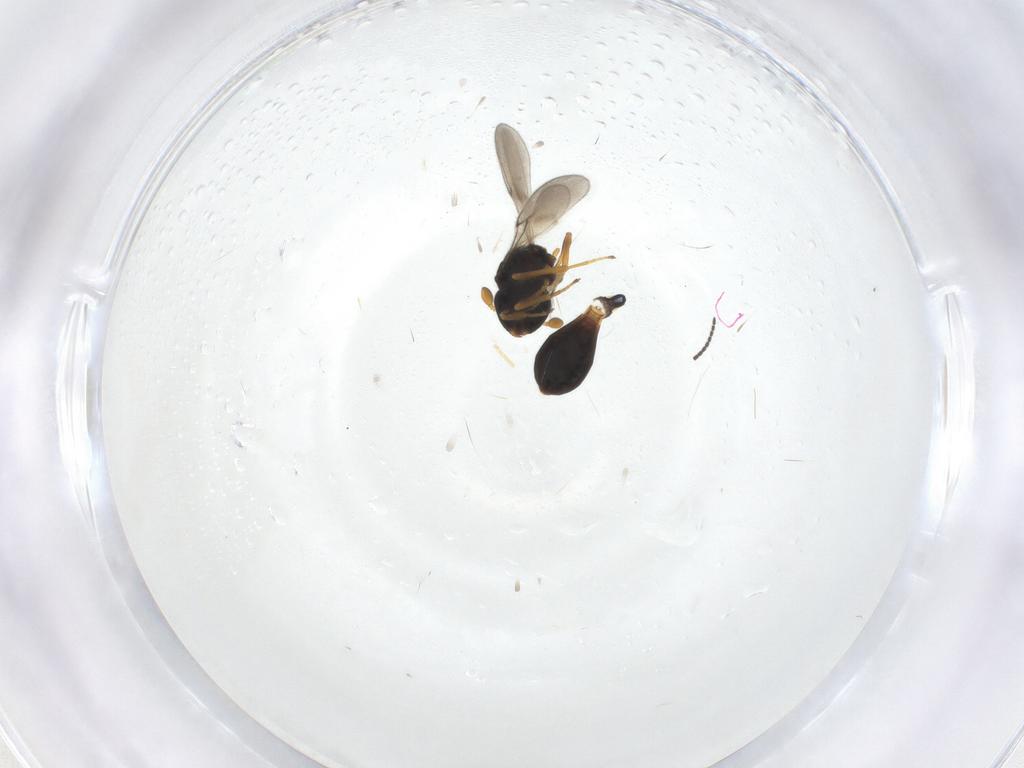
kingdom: Animalia
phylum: Arthropoda
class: Insecta
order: Hymenoptera
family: Scelionidae
